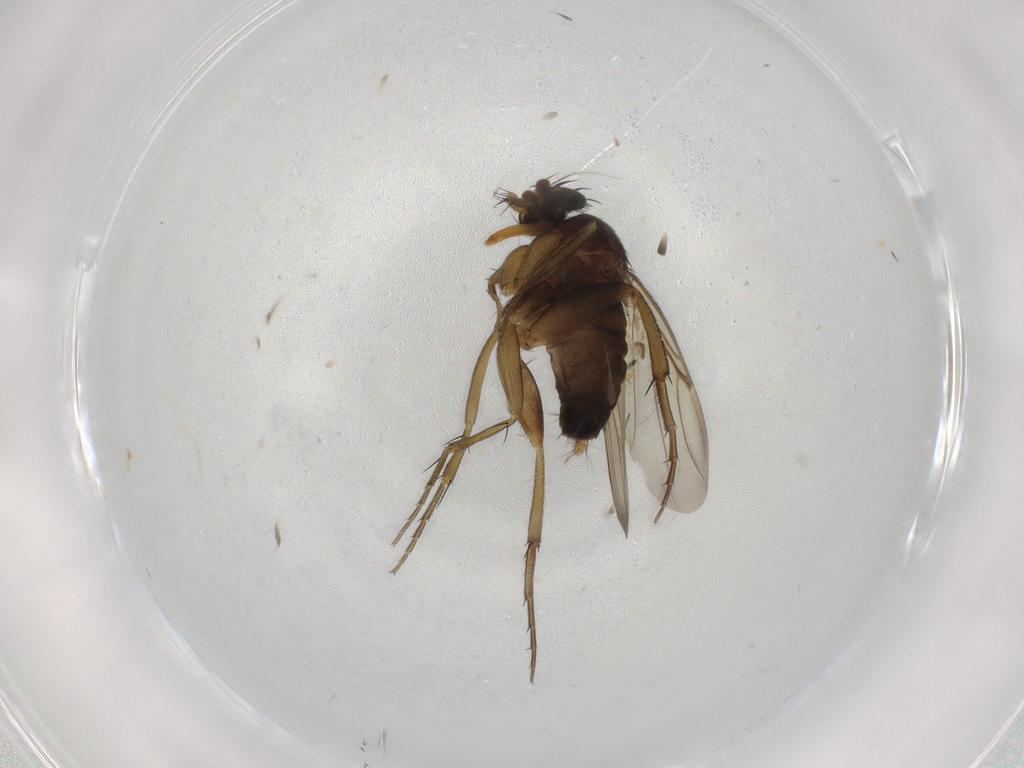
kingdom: Animalia
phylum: Arthropoda
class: Insecta
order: Diptera
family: Phoridae
